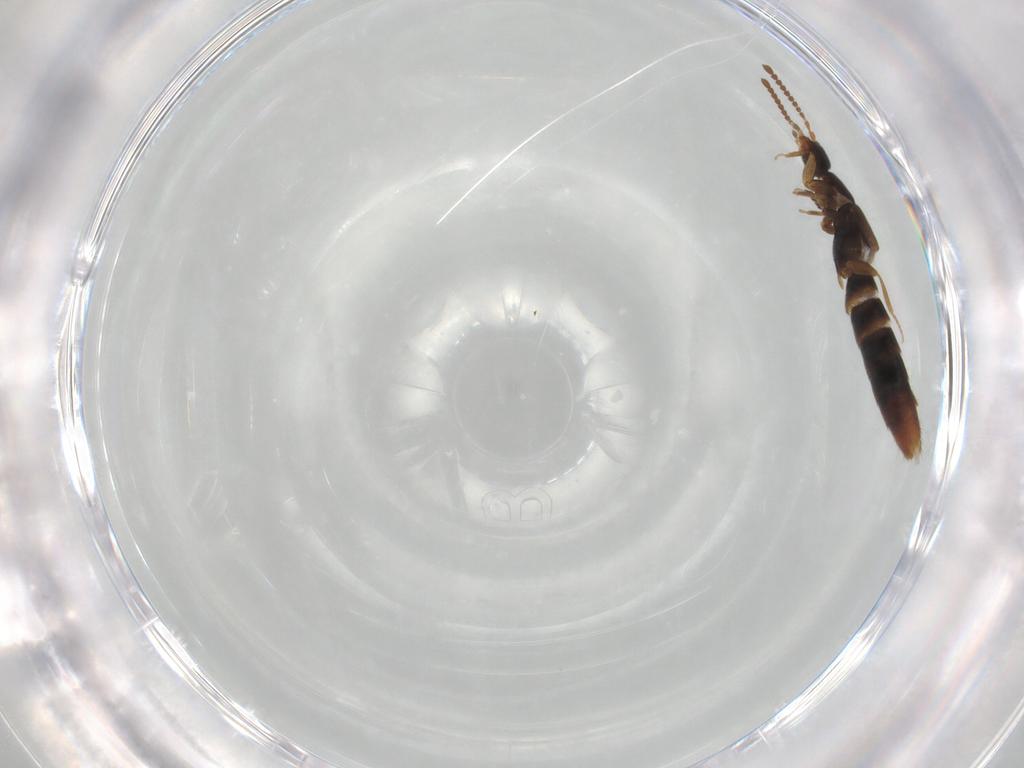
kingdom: Animalia
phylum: Arthropoda
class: Insecta
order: Coleoptera
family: Staphylinidae
